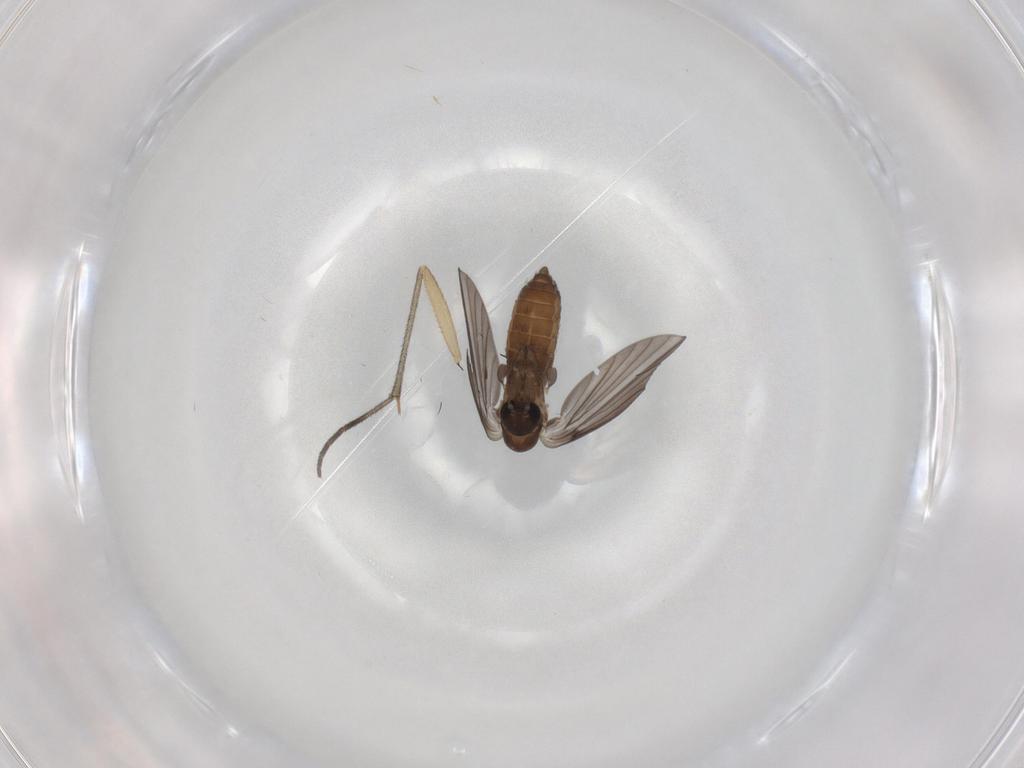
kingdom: Animalia
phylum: Arthropoda
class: Insecta
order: Diptera
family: Sciaridae
